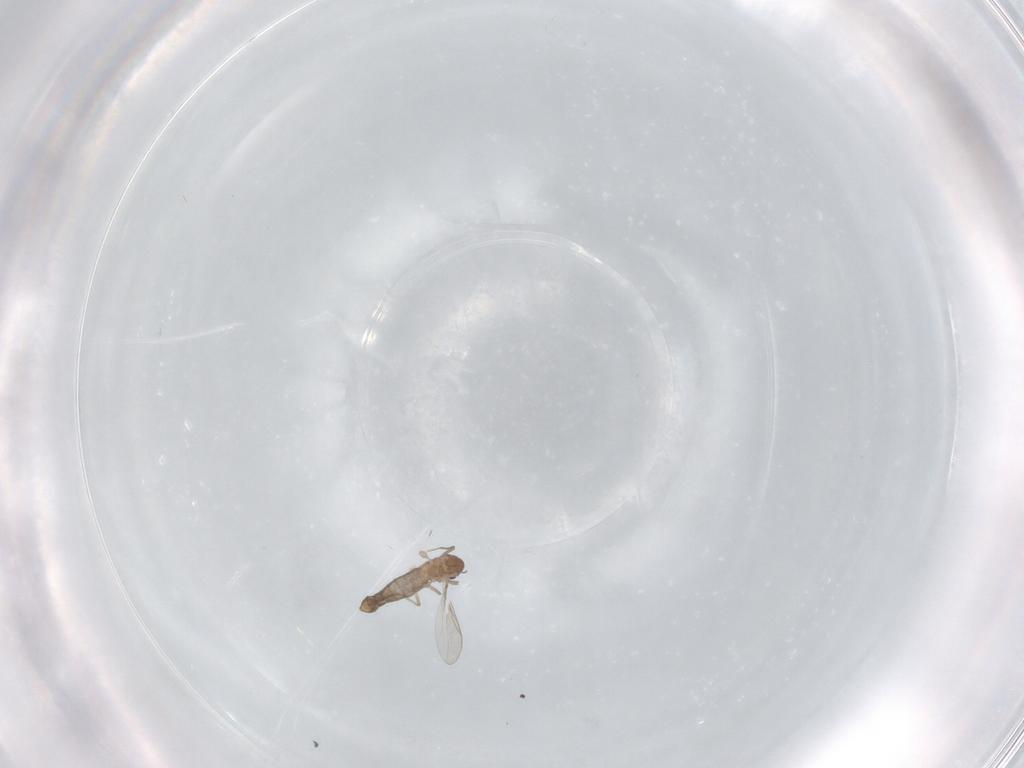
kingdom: Animalia
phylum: Arthropoda
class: Insecta
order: Diptera
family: Chironomidae
